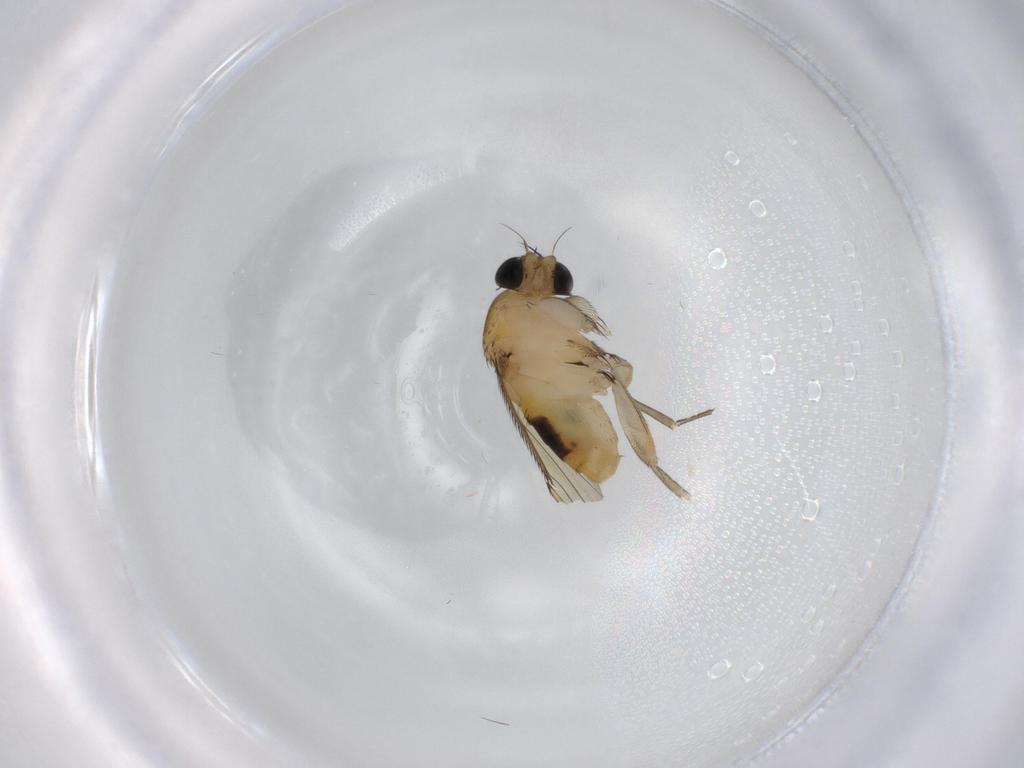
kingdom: Animalia
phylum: Arthropoda
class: Insecta
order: Diptera
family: Phoridae
